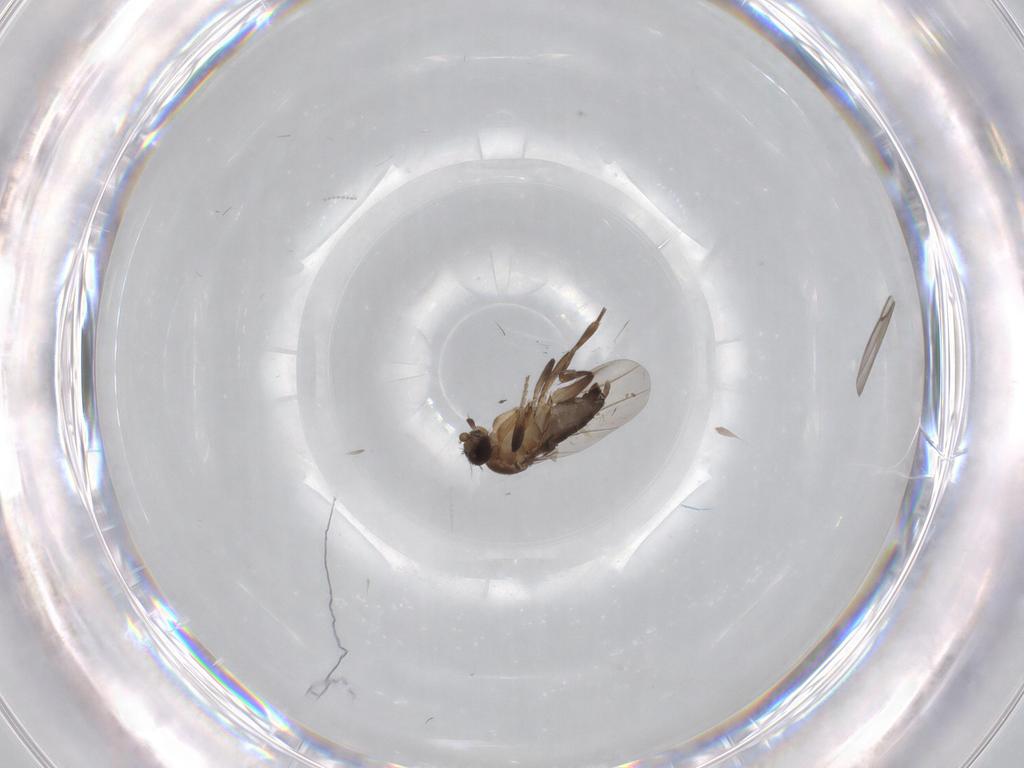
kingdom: Animalia
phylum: Arthropoda
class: Insecta
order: Diptera
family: Phoridae
